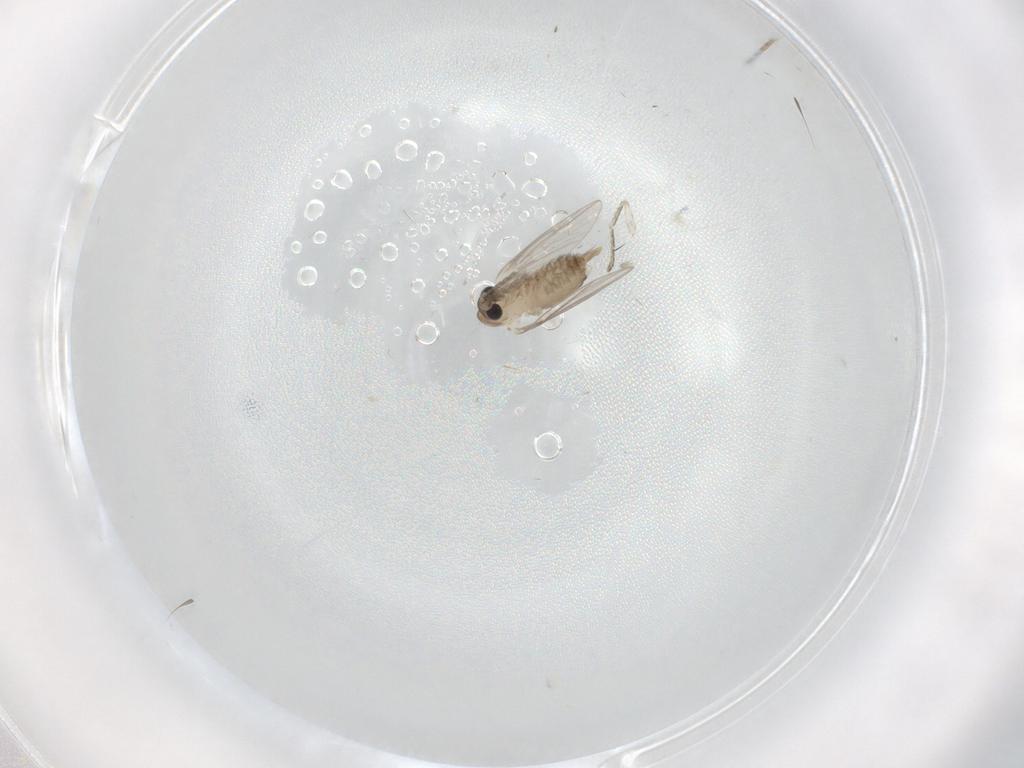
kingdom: Animalia
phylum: Arthropoda
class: Insecta
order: Diptera
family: Psychodidae
